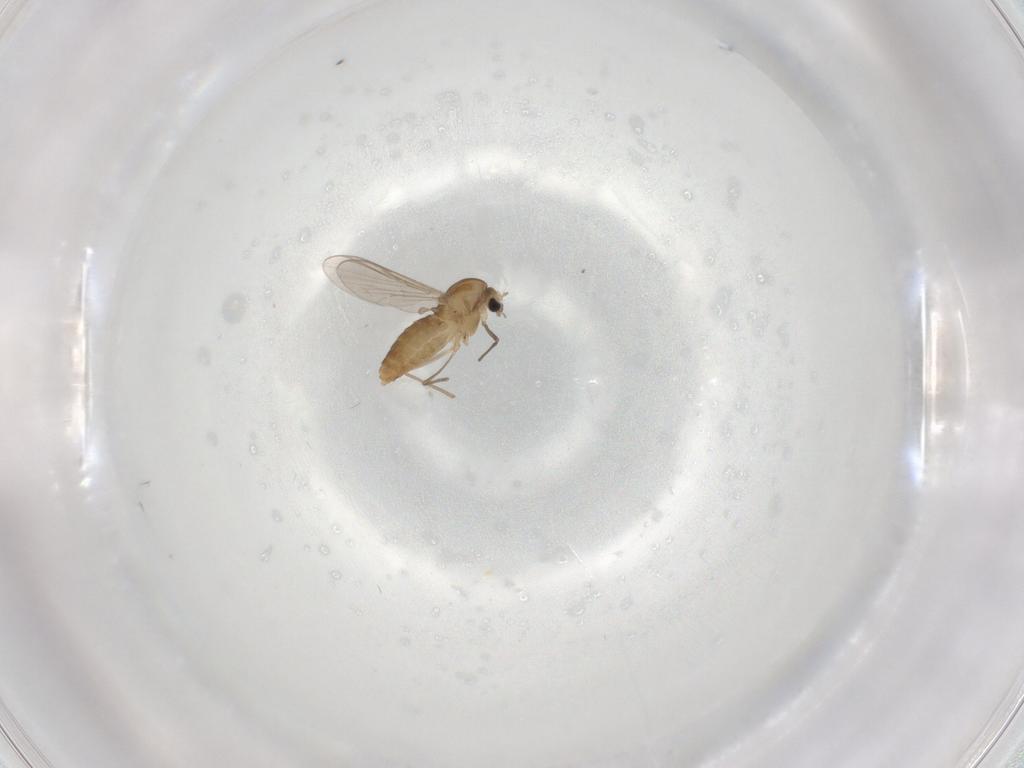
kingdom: Animalia
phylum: Arthropoda
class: Insecta
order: Diptera
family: Chironomidae
